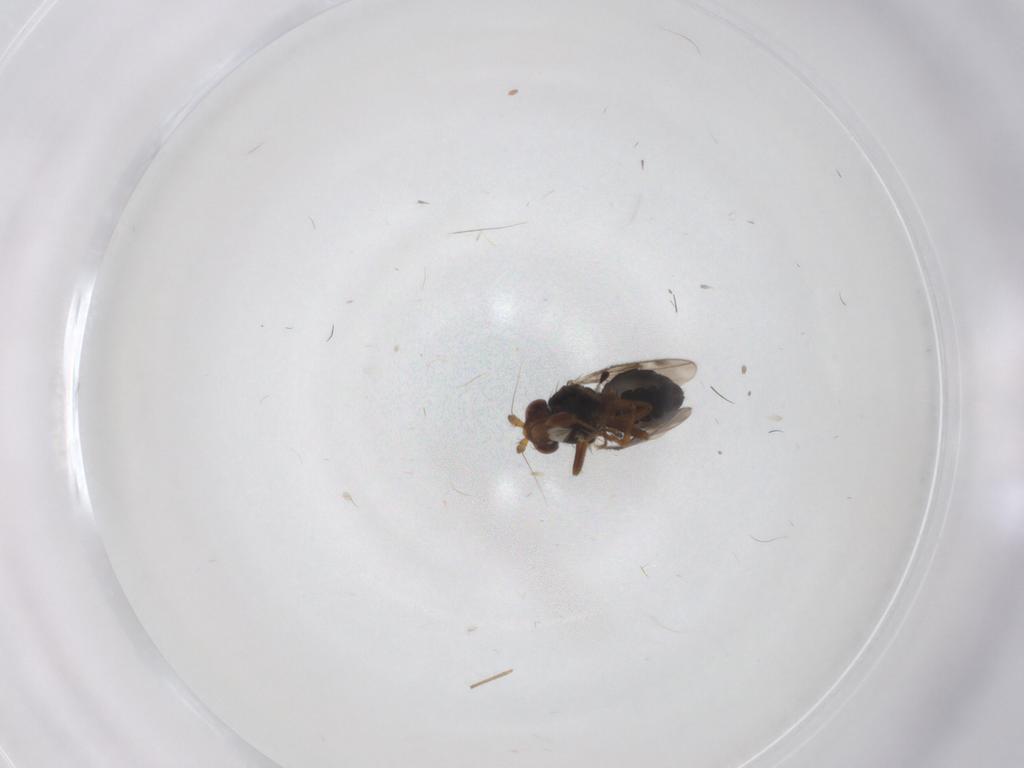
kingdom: Animalia
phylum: Arthropoda
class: Insecta
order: Diptera
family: Sphaeroceridae
